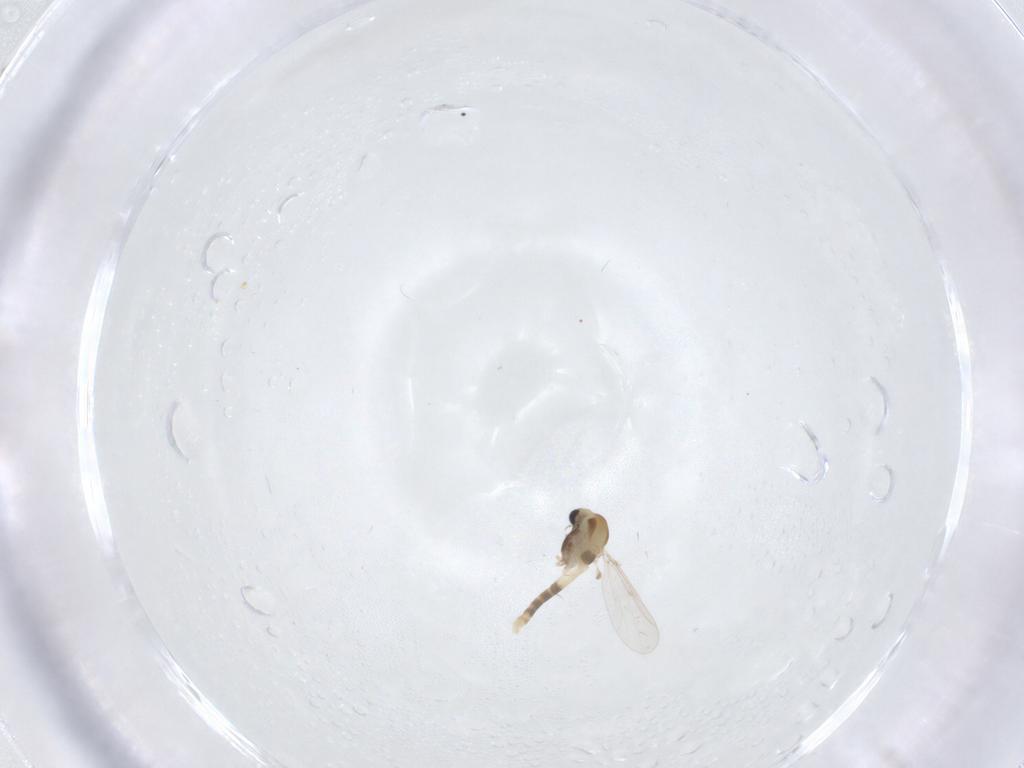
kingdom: Animalia
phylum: Arthropoda
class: Insecta
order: Diptera
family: Chironomidae
